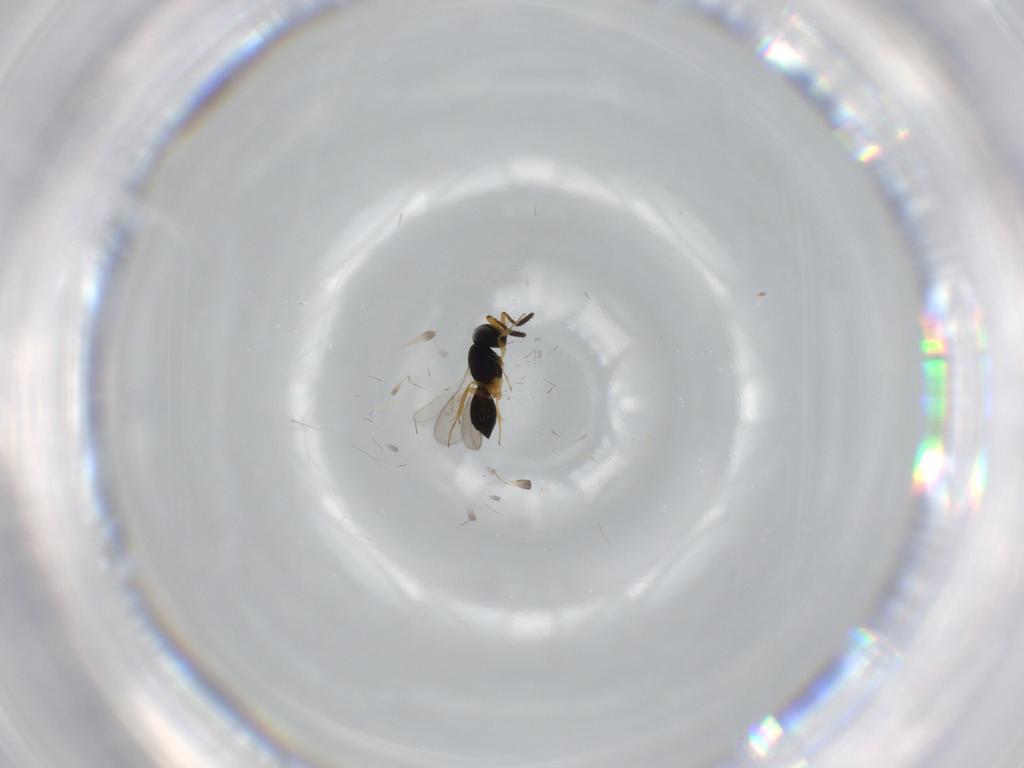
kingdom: Animalia
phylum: Arthropoda
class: Insecta
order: Hymenoptera
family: Scelionidae
